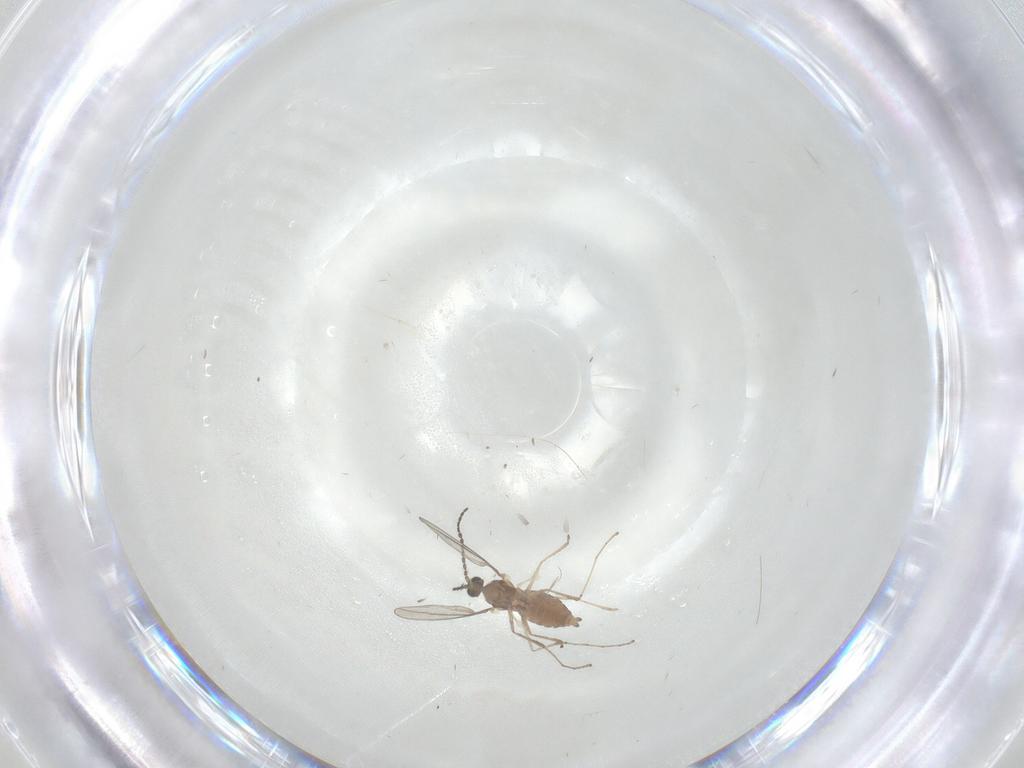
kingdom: Animalia
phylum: Arthropoda
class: Insecta
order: Diptera
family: Cecidomyiidae
